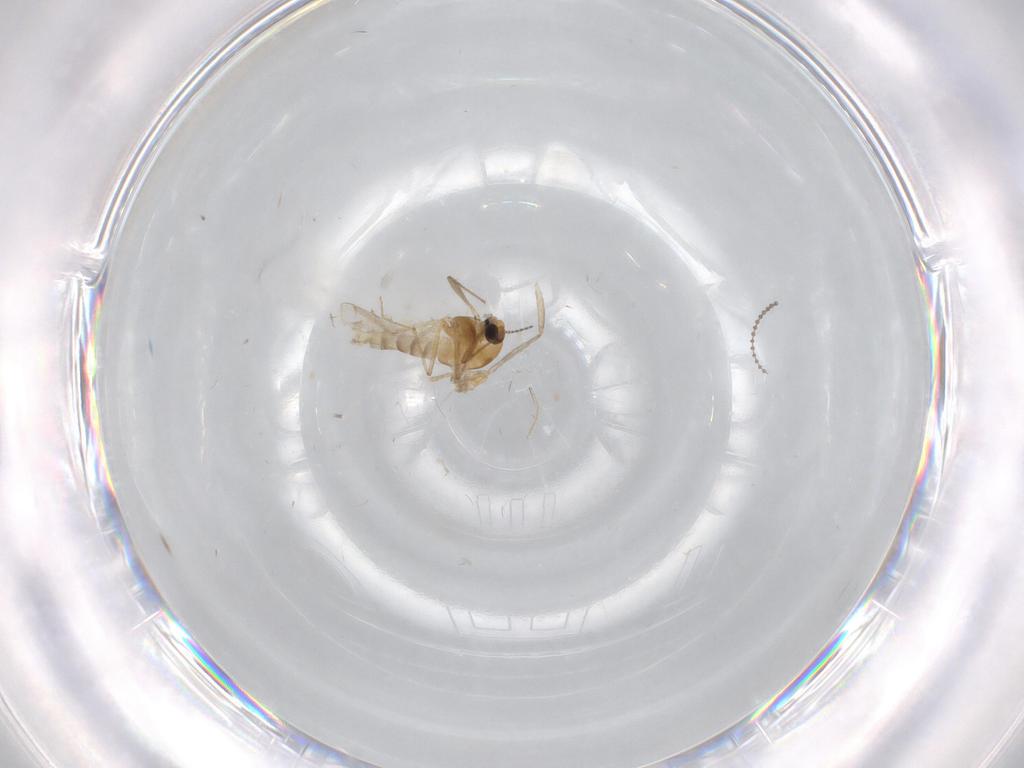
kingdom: Animalia
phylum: Arthropoda
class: Insecta
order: Diptera
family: Chironomidae
